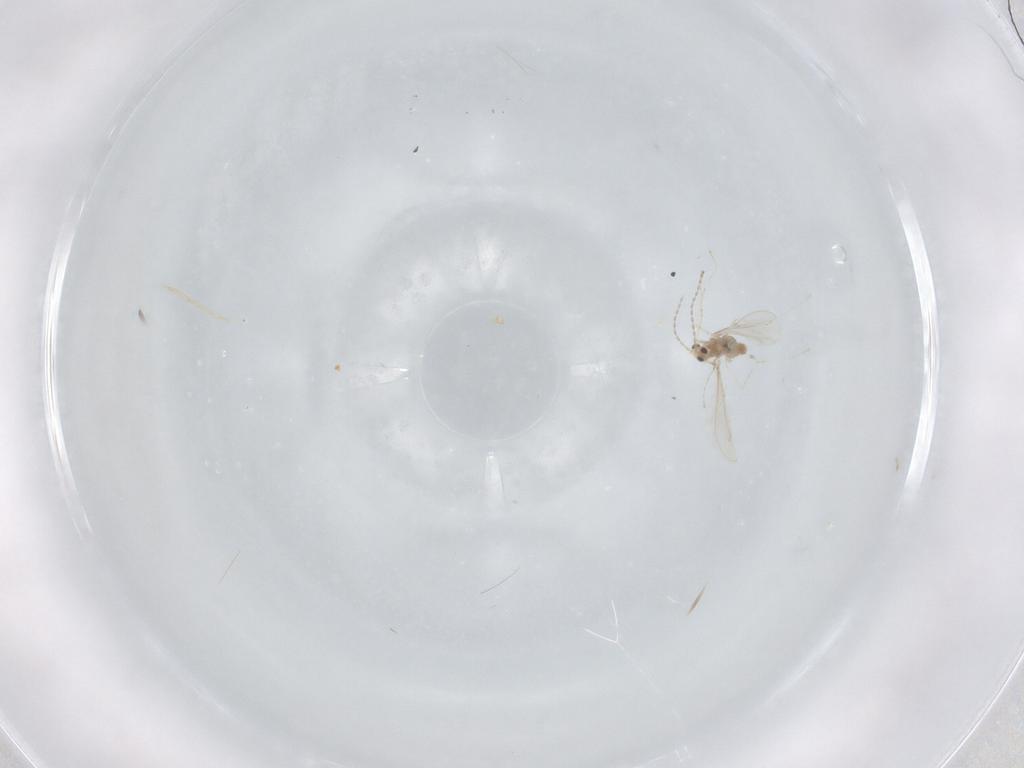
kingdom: Animalia
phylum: Arthropoda
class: Insecta
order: Diptera
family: Cecidomyiidae
